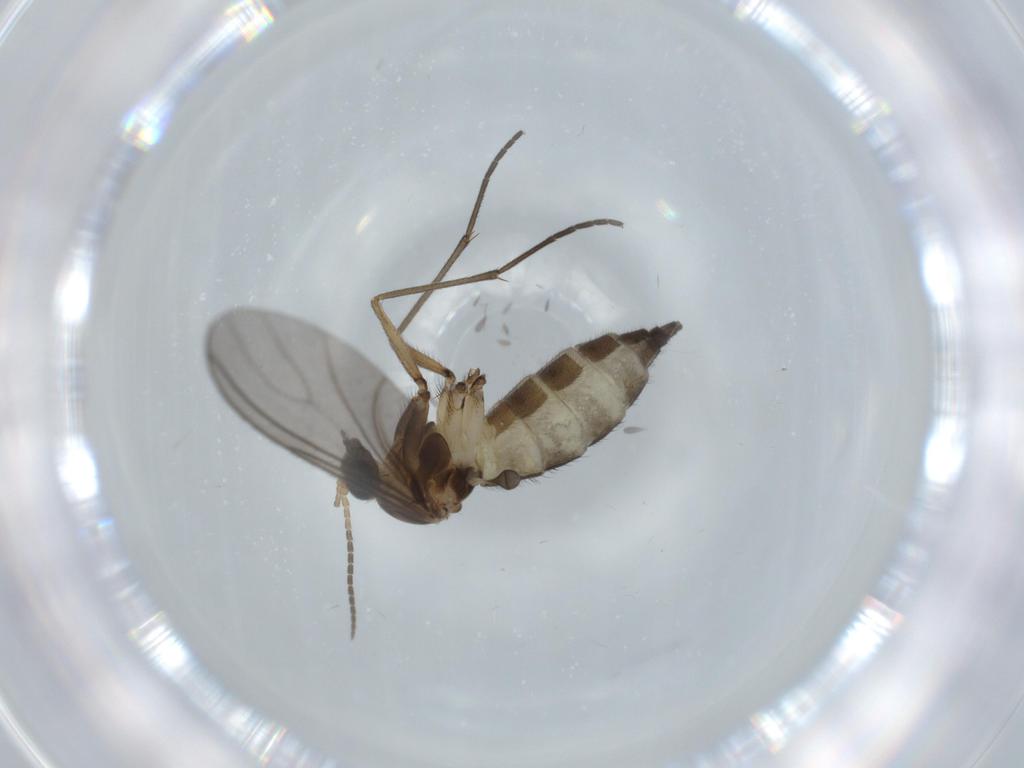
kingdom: Animalia
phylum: Arthropoda
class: Insecta
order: Diptera
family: Sciaridae
